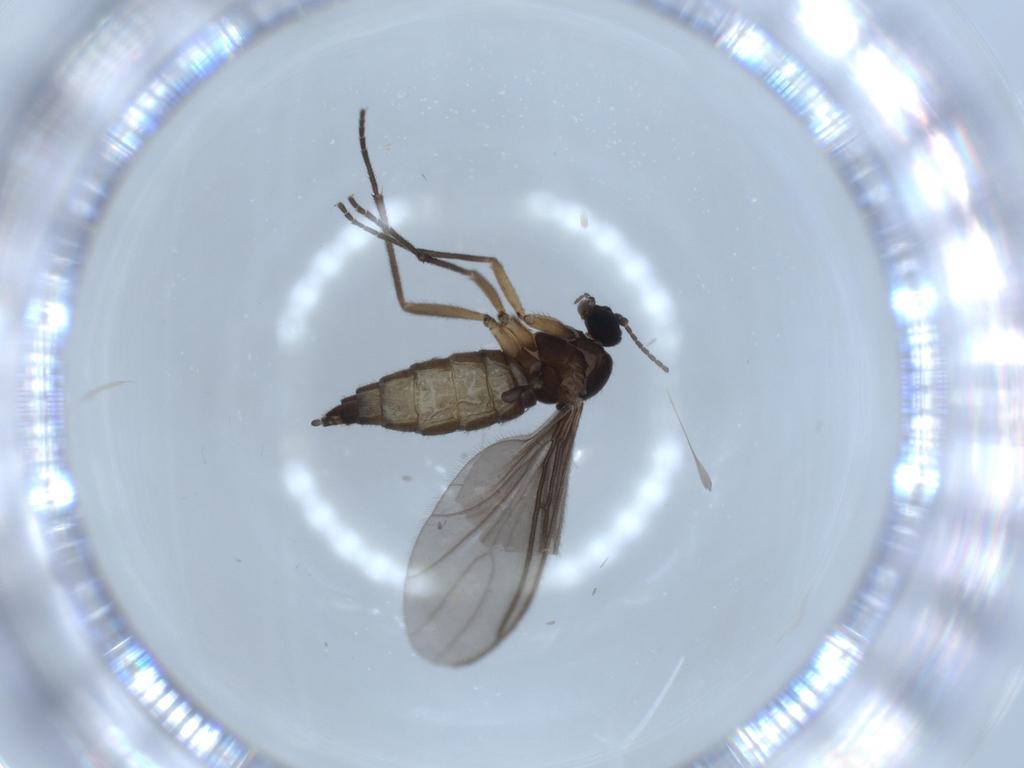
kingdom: Animalia
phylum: Arthropoda
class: Insecta
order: Diptera
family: Sciaridae
